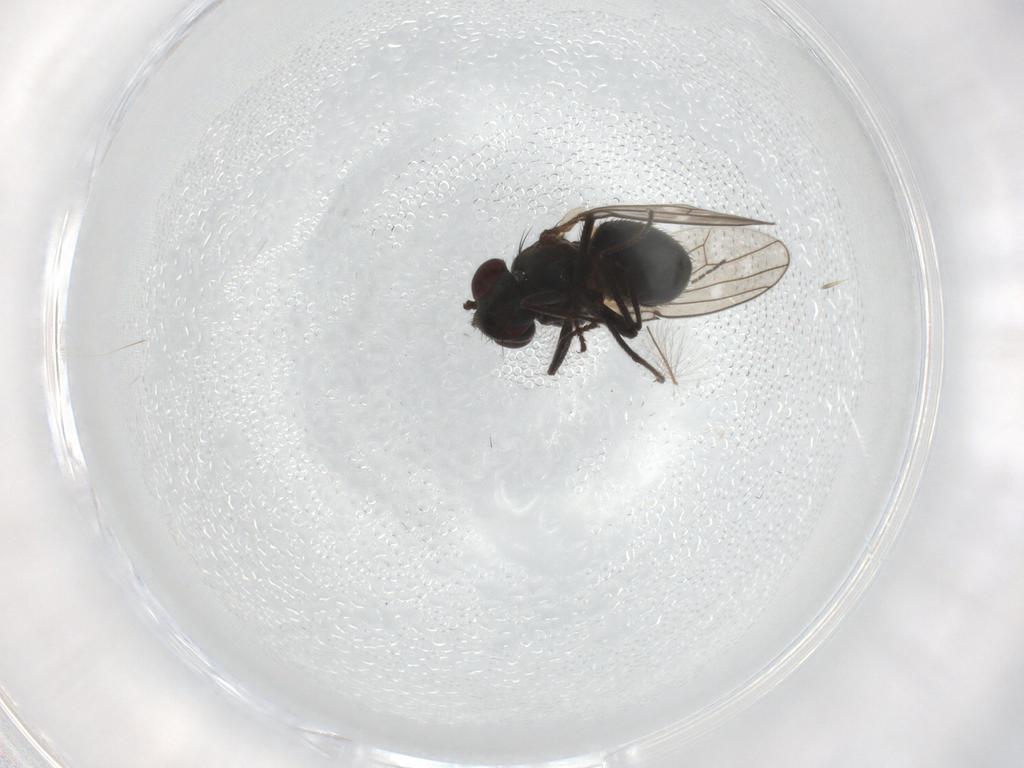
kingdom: Animalia
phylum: Arthropoda
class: Insecta
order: Diptera
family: Ephydridae
